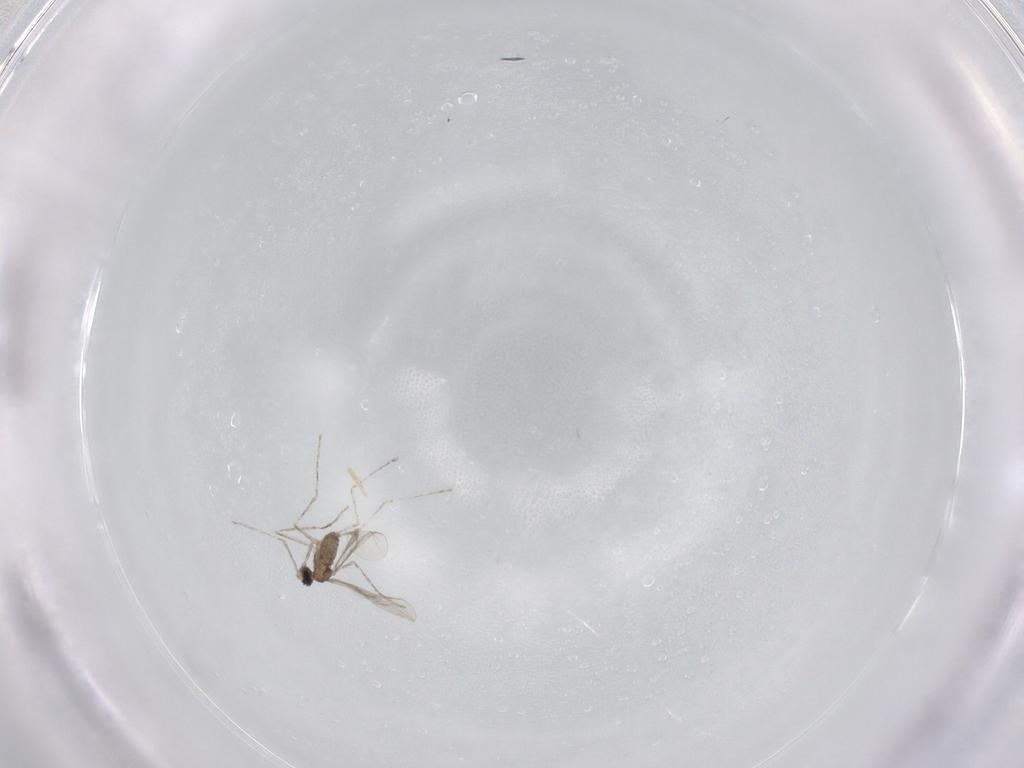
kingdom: Animalia
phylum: Arthropoda
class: Insecta
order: Diptera
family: Cecidomyiidae
